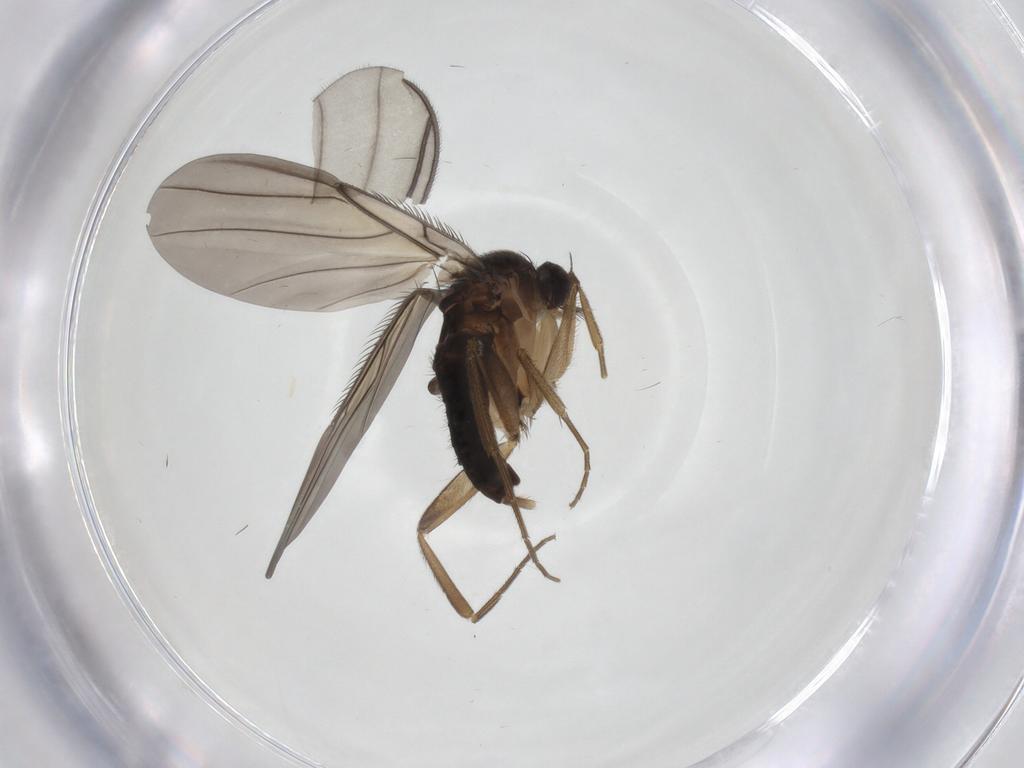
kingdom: Animalia
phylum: Arthropoda
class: Insecta
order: Diptera
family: Phoridae
